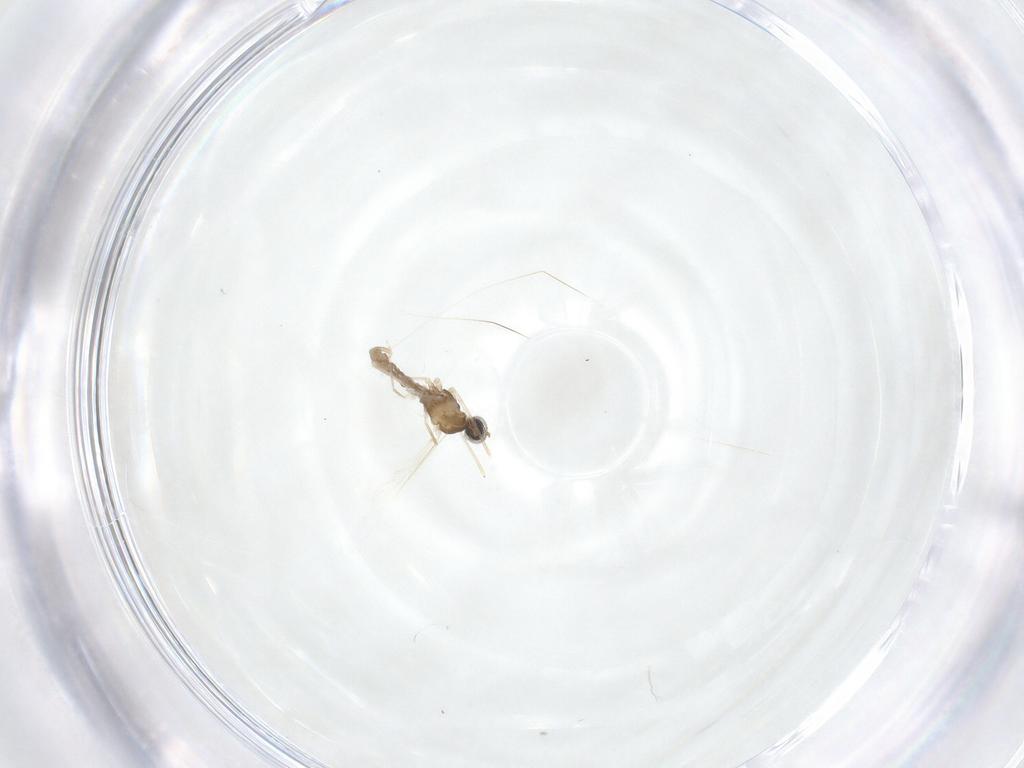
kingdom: Animalia
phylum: Arthropoda
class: Insecta
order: Diptera
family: Cecidomyiidae
